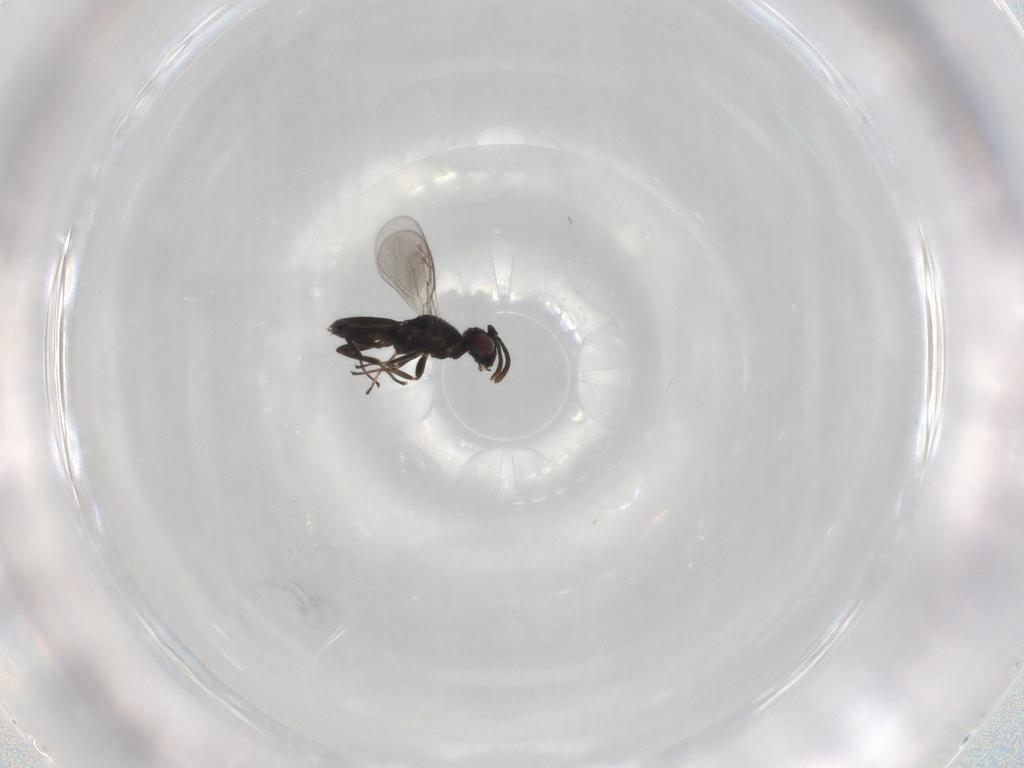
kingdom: Animalia
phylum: Arthropoda
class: Insecta
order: Hymenoptera
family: Eupelmidae
